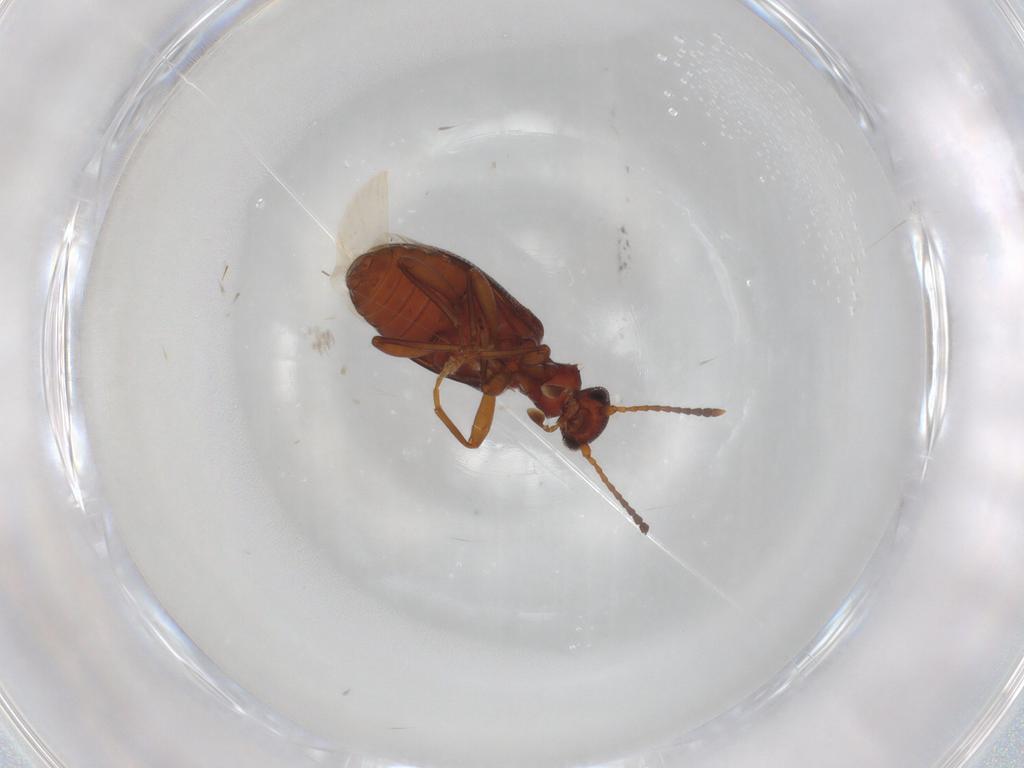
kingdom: Animalia
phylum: Arthropoda
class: Insecta
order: Coleoptera
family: Anthicidae
